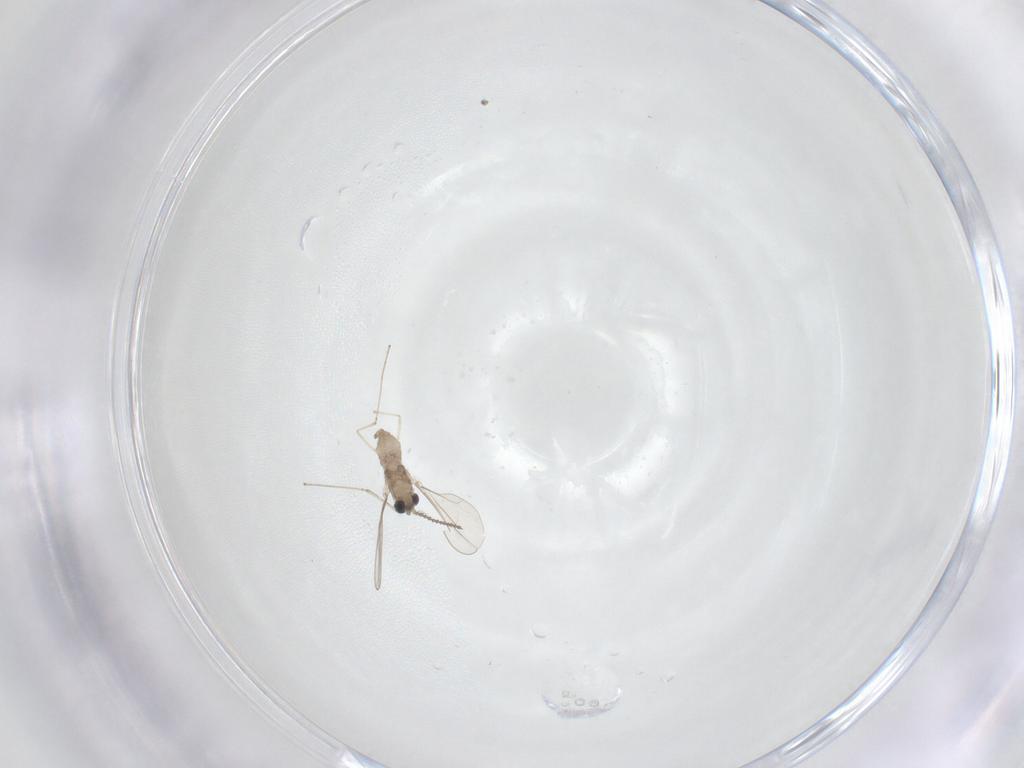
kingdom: Animalia
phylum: Arthropoda
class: Insecta
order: Diptera
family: Cecidomyiidae
